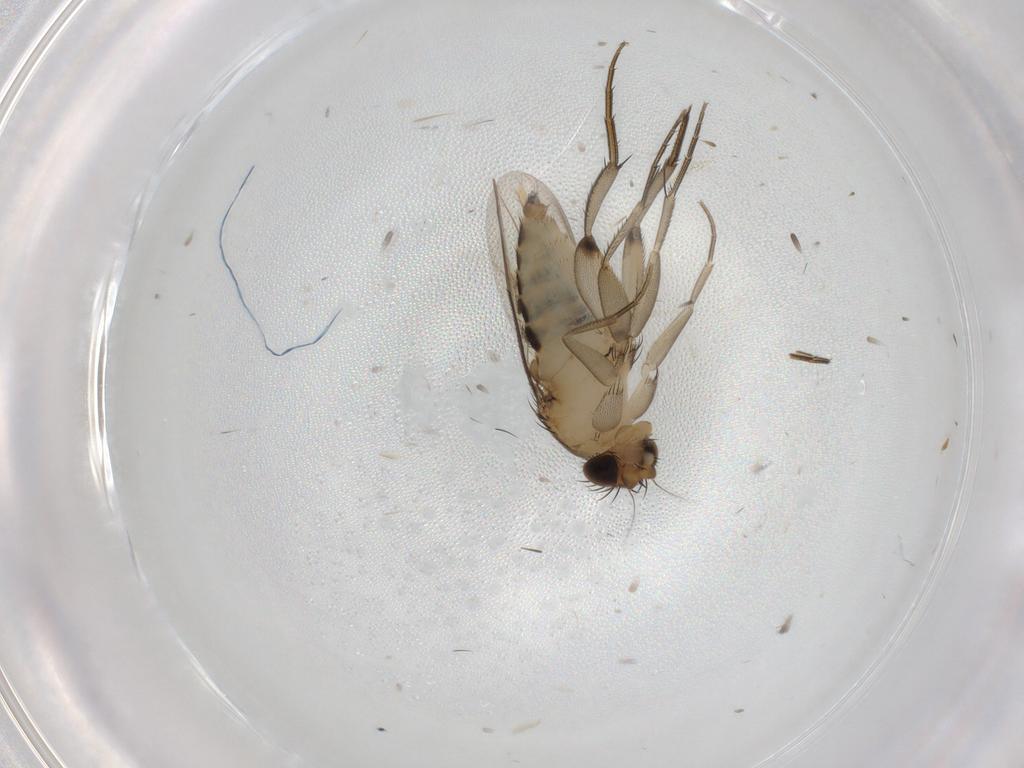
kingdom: Animalia
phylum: Arthropoda
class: Insecta
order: Diptera
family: Phoridae
